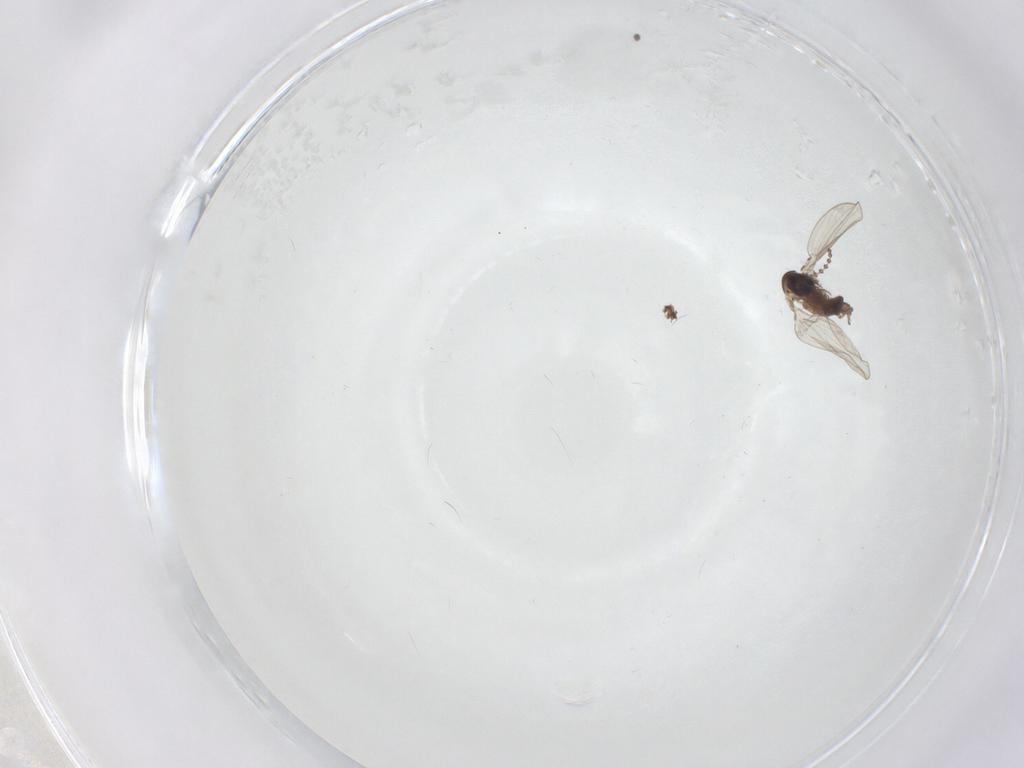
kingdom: Animalia
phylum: Arthropoda
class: Insecta
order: Diptera
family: Sciaridae
